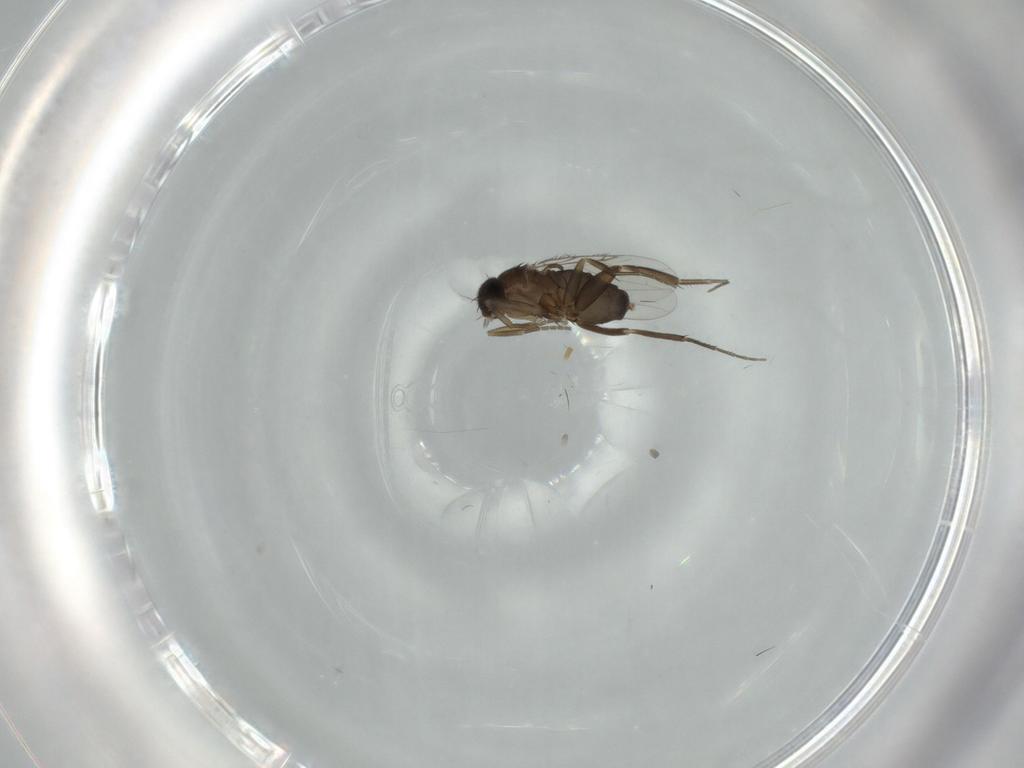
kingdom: Animalia
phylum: Arthropoda
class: Insecta
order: Diptera
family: Phoridae
